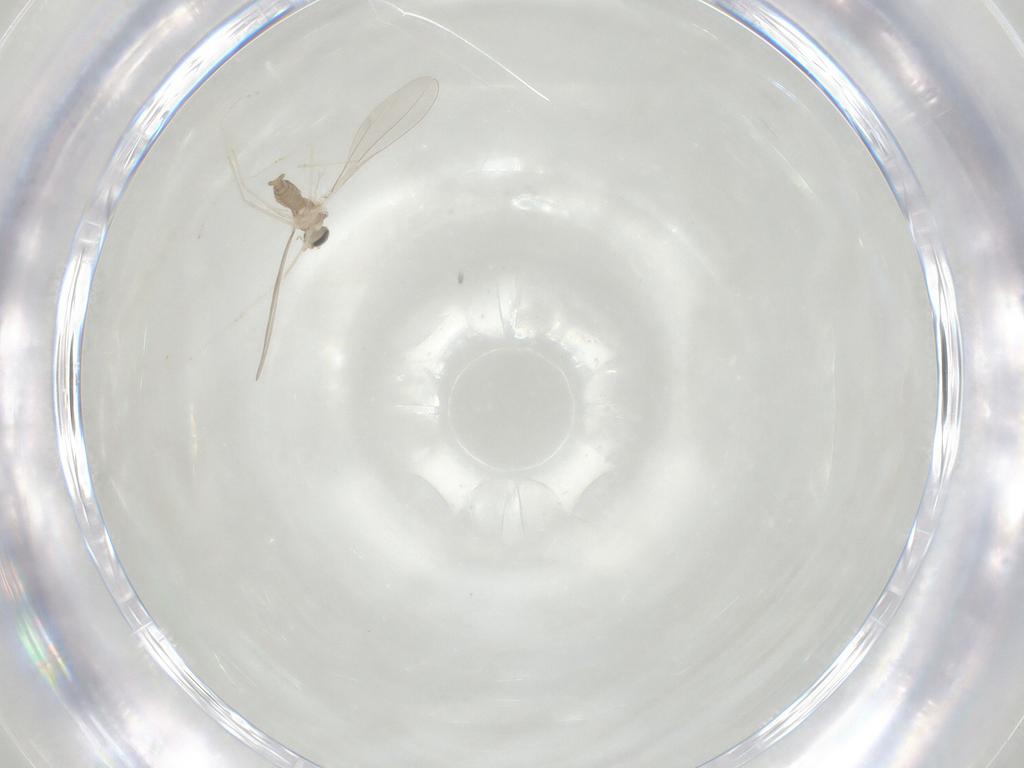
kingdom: Animalia
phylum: Arthropoda
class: Insecta
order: Diptera
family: Cecidomyiidae
